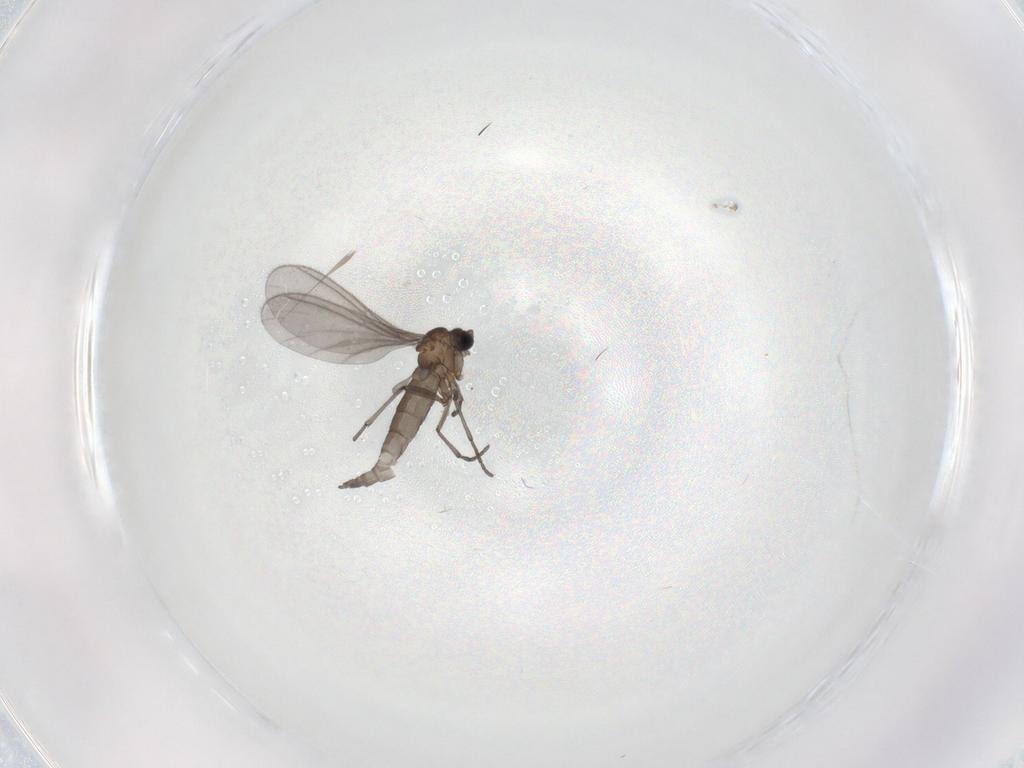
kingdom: Animalia
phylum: Arthropoda
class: Insecta
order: Diptera
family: Sciaridae
